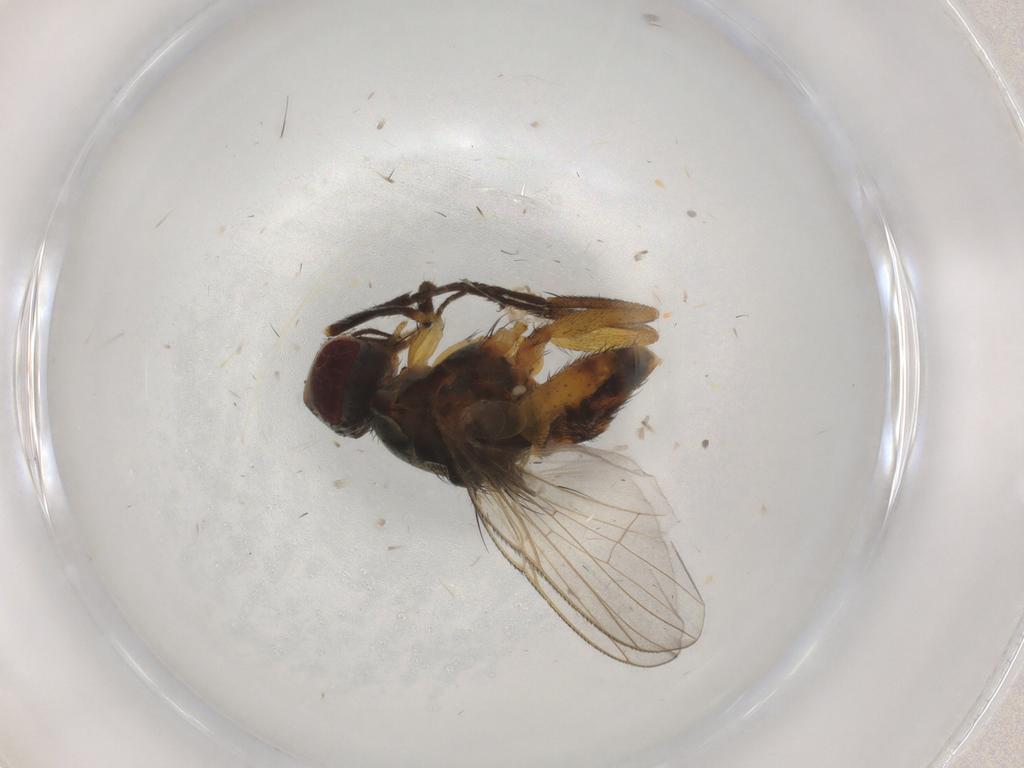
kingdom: Animalia
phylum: Arthropoda
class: Insecta
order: Diptera
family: Muscidae
